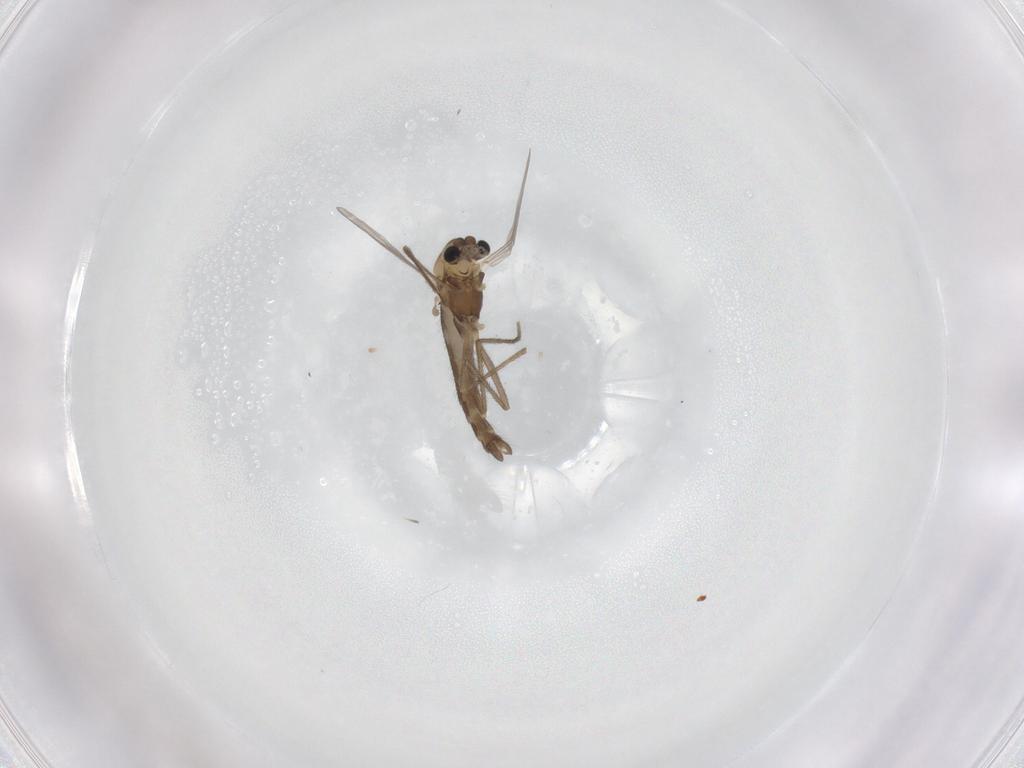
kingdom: Animalia
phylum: Arthropoda
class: Insecta
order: Diptera
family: Chironomidae
